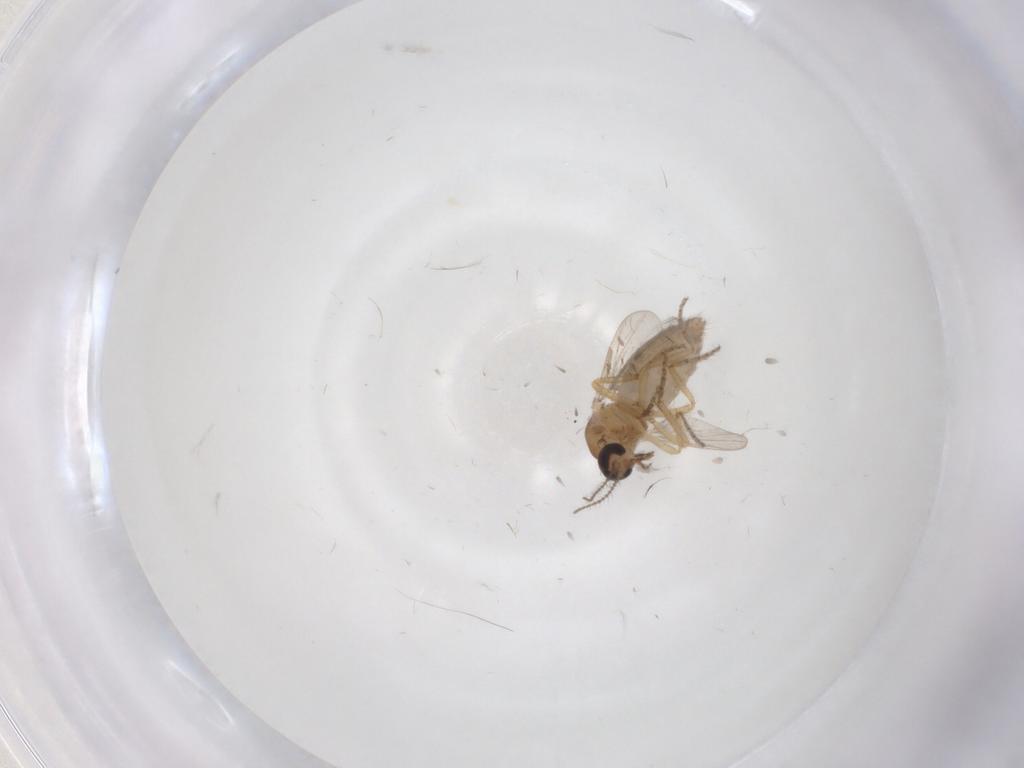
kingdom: Animalia
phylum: Arthropoda
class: Insecta
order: Diptera
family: Ceratopogonidae
